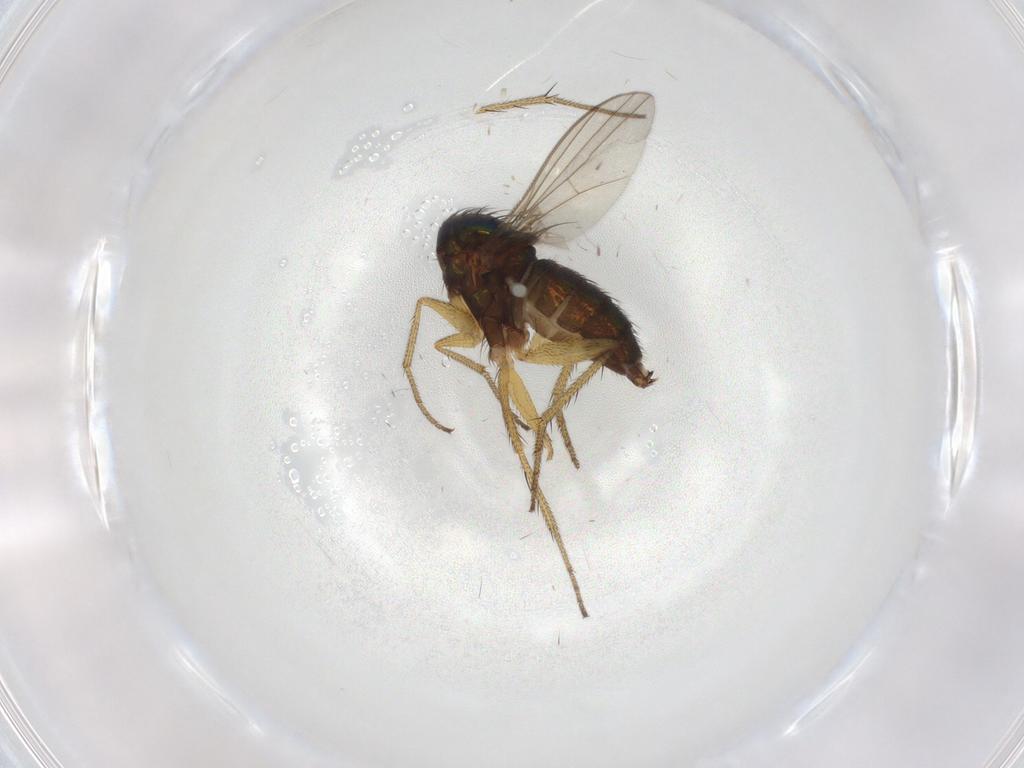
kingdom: Animalia
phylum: Arthropoda
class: Insecta
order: Diptera
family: Dolichopodidae
